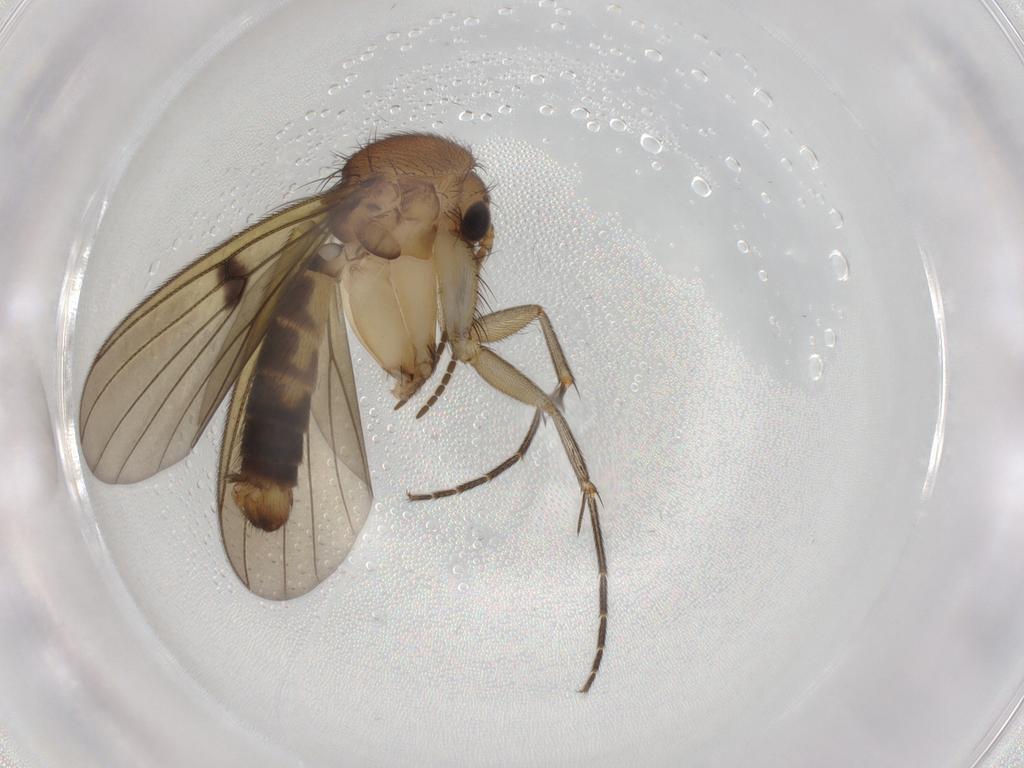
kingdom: Animalia
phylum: Arthropoda
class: Insecta
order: Diptera
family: Mycetophilidae
